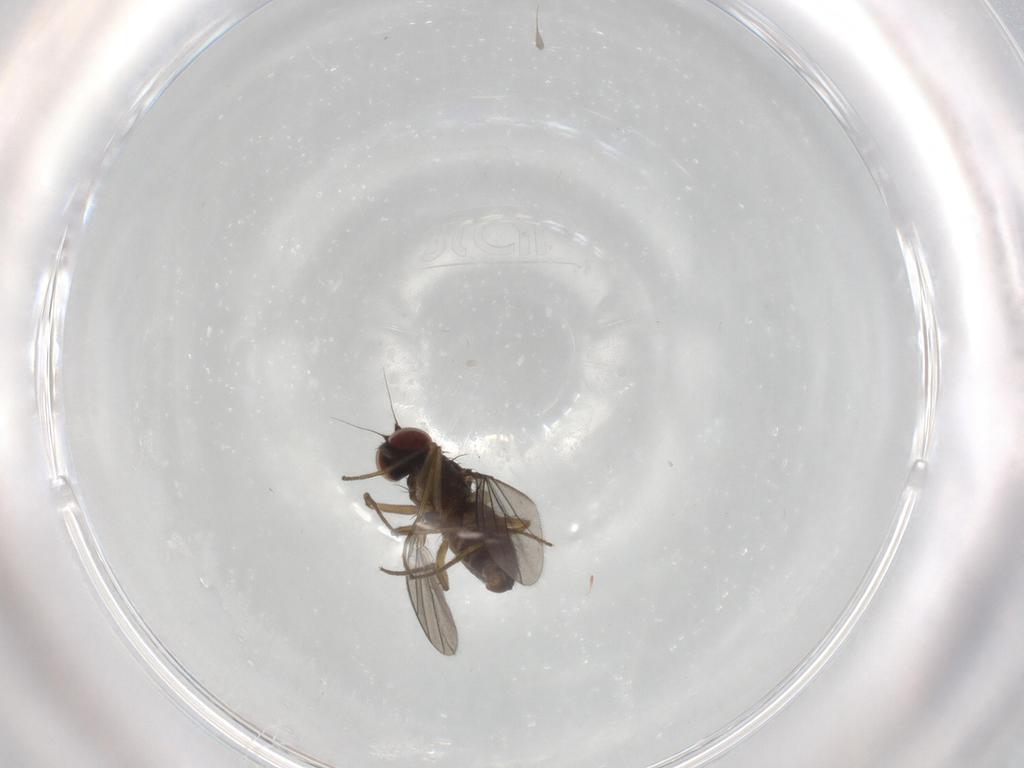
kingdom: Animalia
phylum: Arthropoda
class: Insecta
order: Diptera
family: Dolichopodidae
